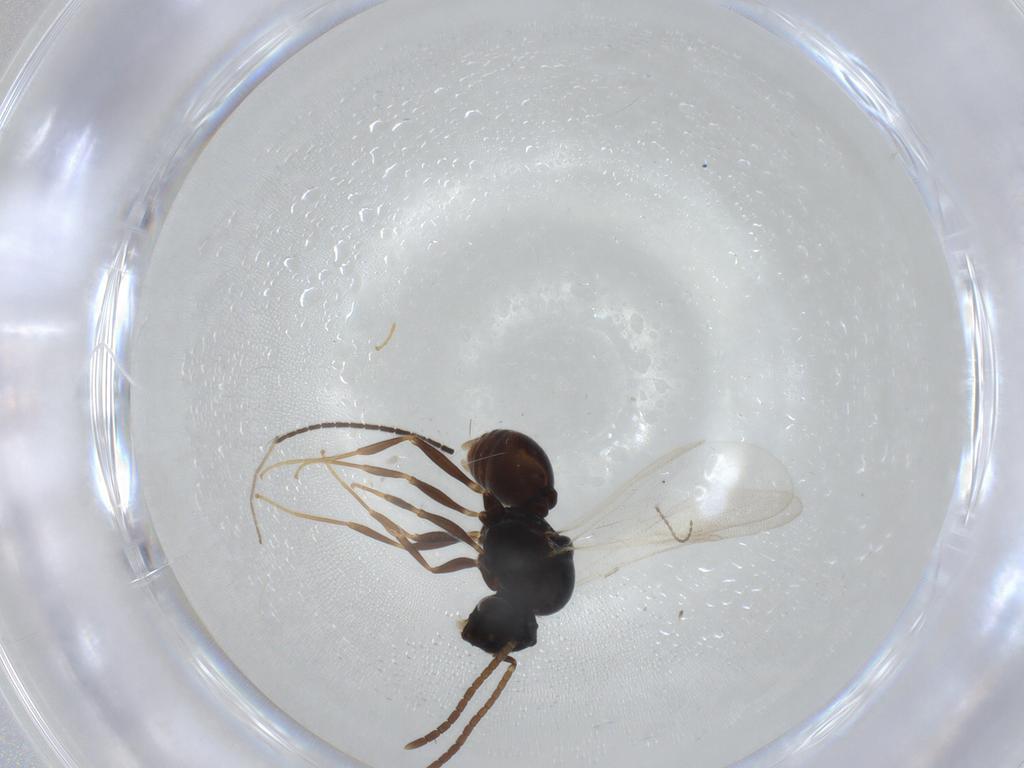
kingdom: Animalia
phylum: Arthropoda
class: Insecta
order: Hymenoptera
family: Formicidae
